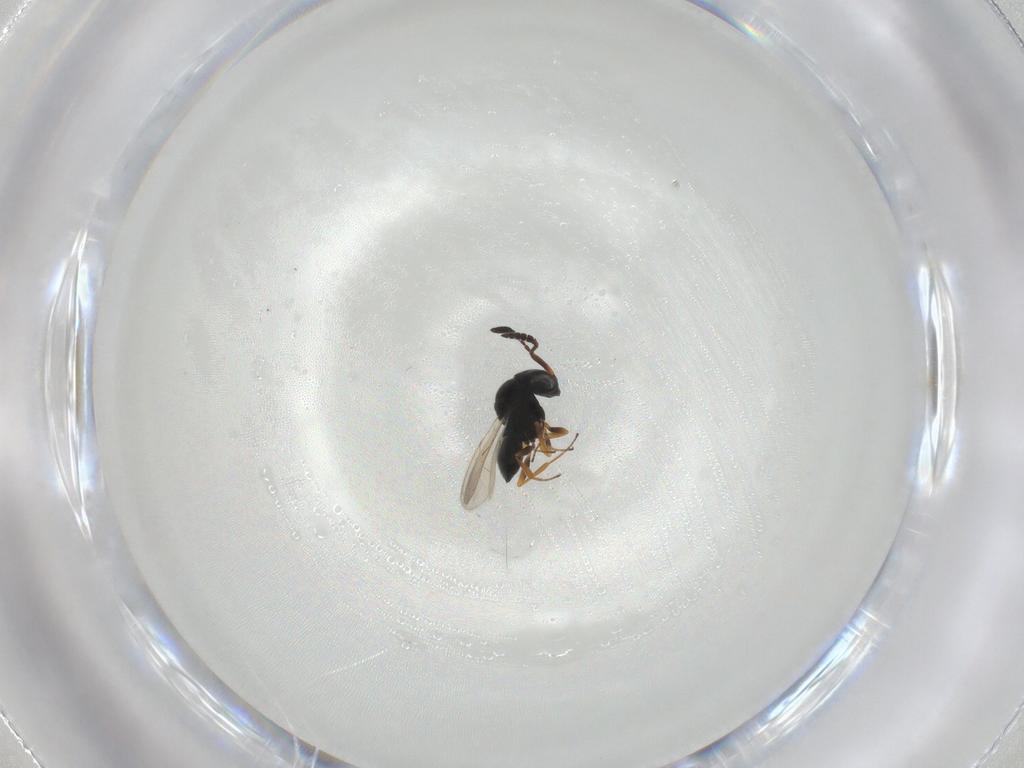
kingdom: Animalia
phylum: Arthropoda
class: Insecta
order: Hymenoptera
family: Scelionidae
